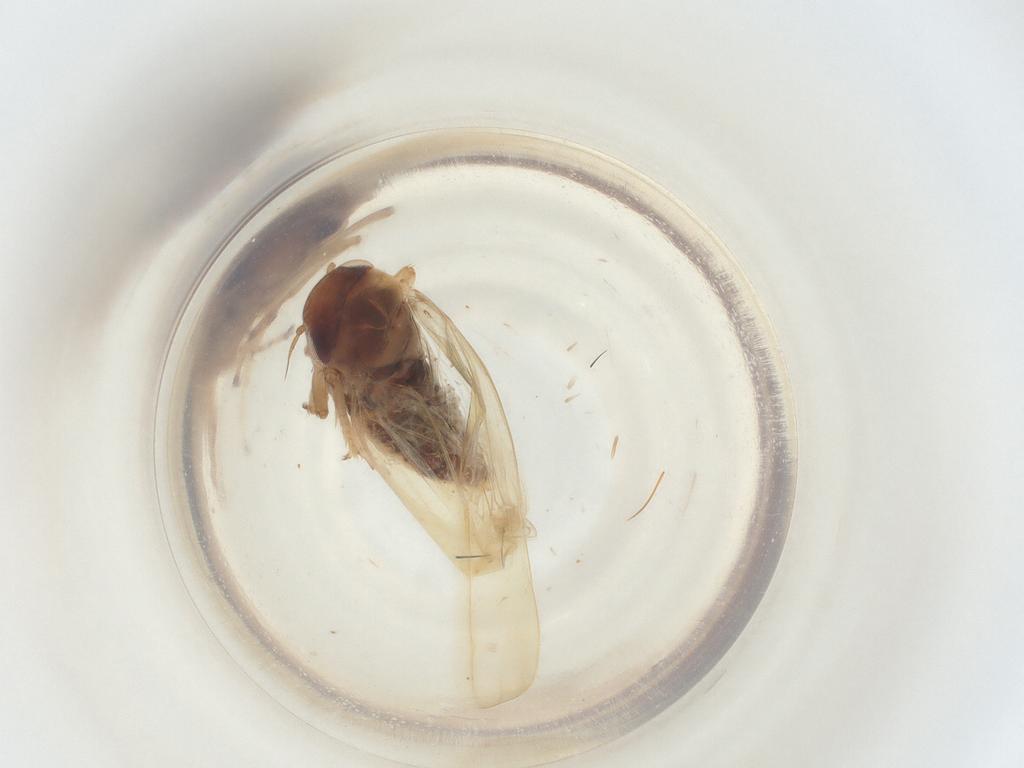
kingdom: Animalia
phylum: Arthropoda
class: Insecta
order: Hemiptera
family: Cicadellidae
